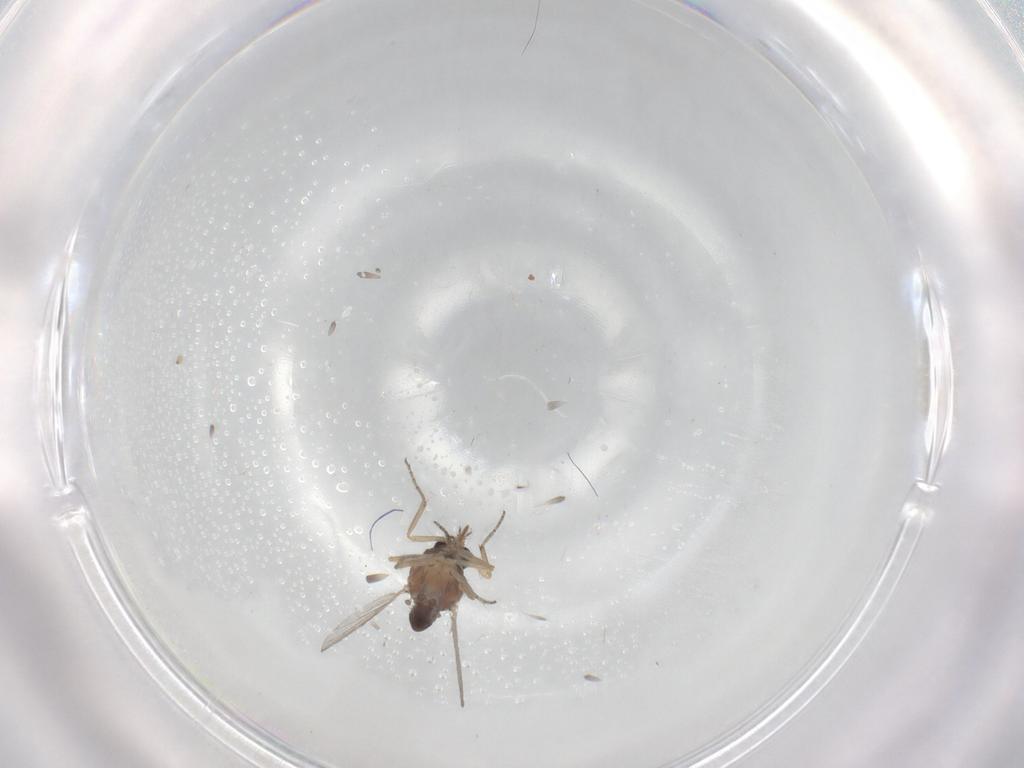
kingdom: Animalia
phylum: Arthropoda
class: Insecta
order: Diptera
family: Ceratopogonidae
